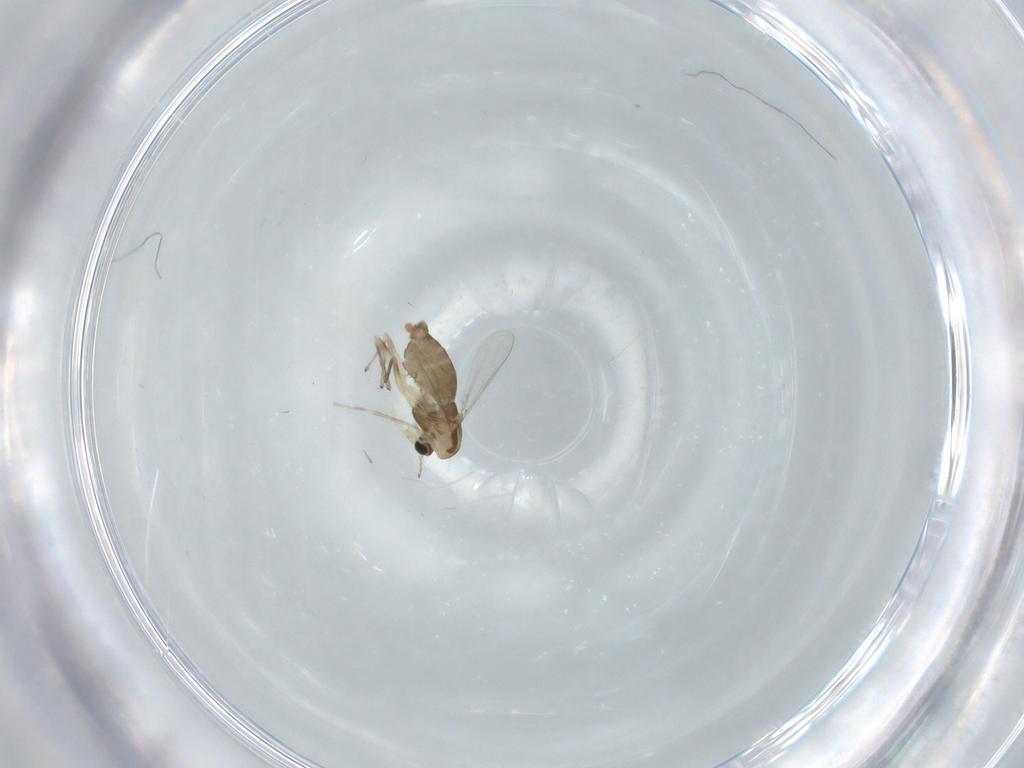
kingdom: Animalia
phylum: Arthropoda
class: Insecta
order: Diptera
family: Chironomidae
